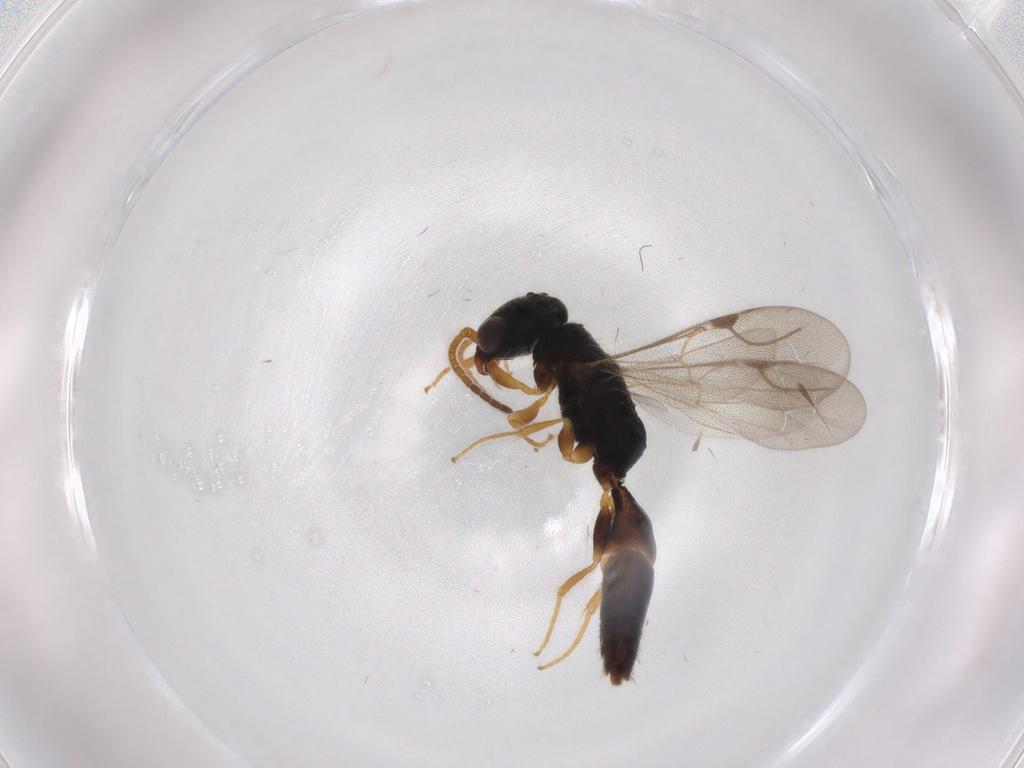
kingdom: Animalia
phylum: Arthropoda
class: Insecta
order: Hymenoptera
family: Bethylidae
